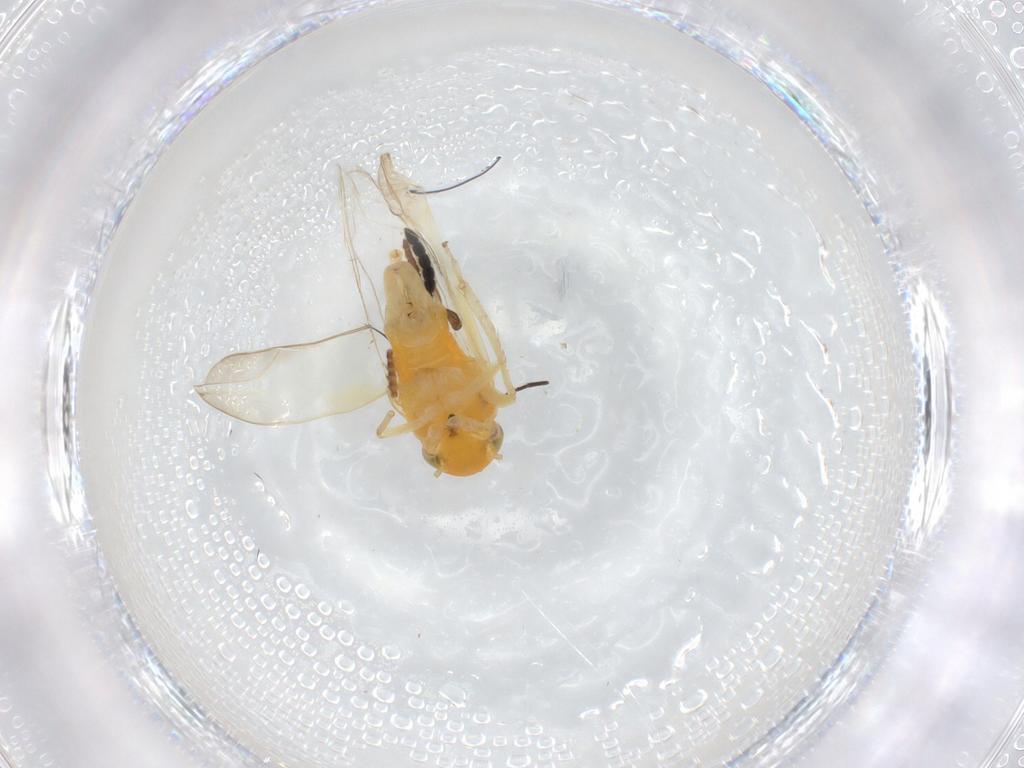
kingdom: Animalia
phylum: Arthropoda
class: Insecta
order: Hemiptera
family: Cicadellidae
